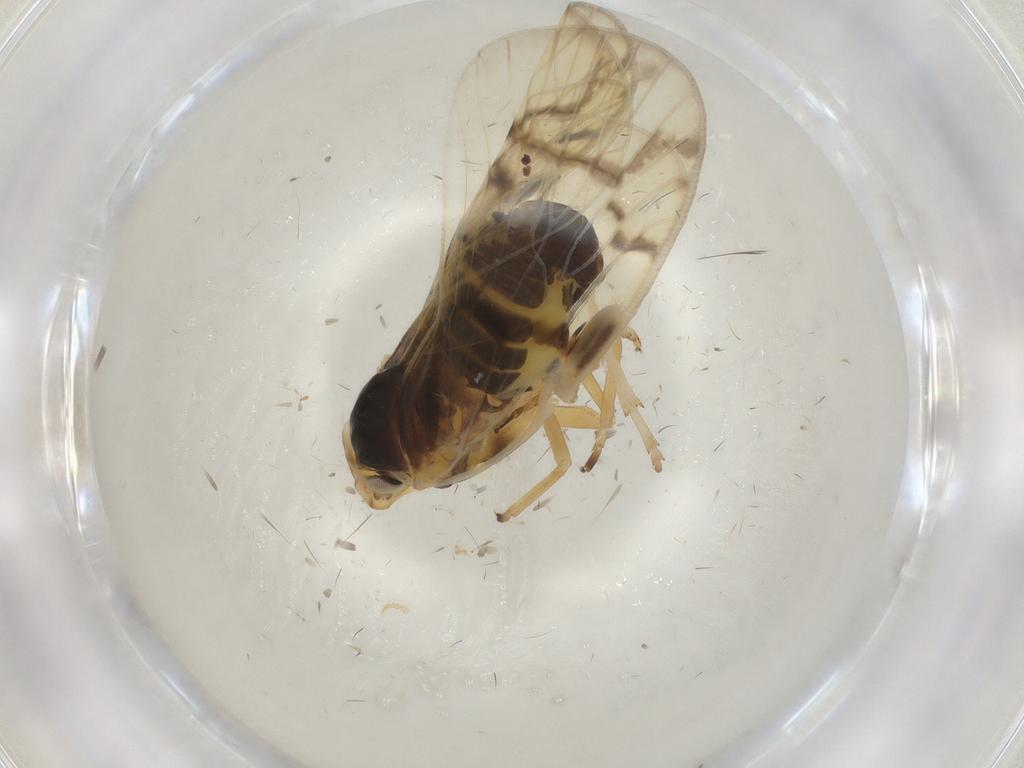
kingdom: Animalia
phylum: Arthropoda
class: Insecta
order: Hemiptera
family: Cixiidae
